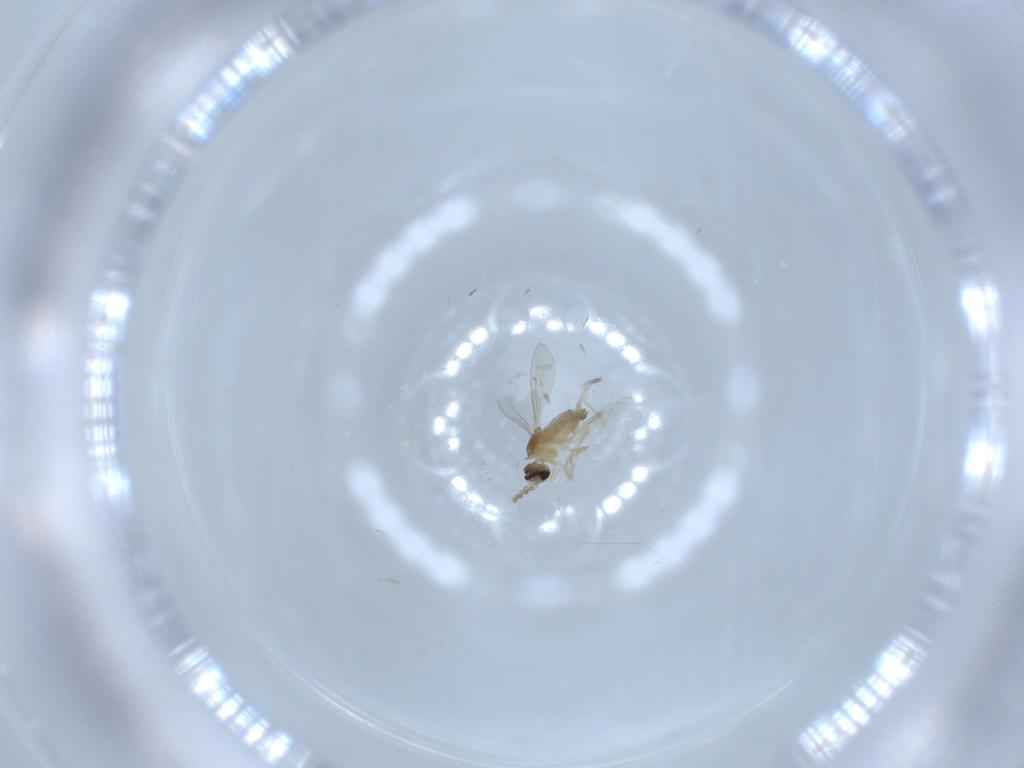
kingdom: Animalia
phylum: Arthropoda
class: Insecta
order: Diptera
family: Cecidomyiidae
